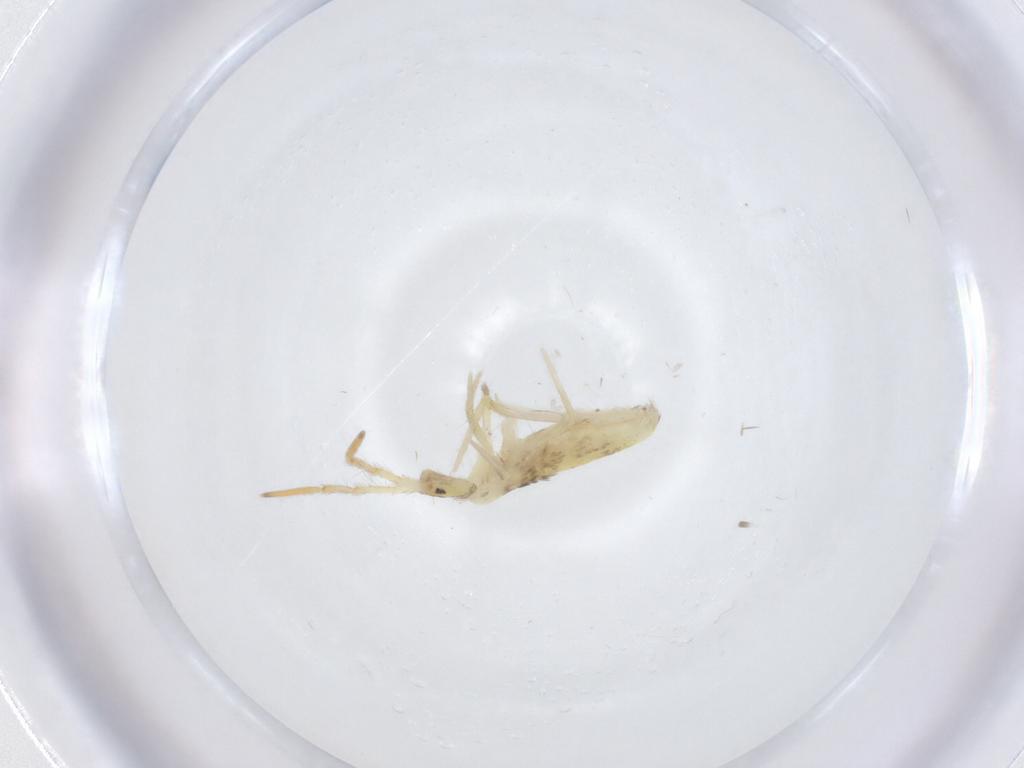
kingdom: Animalia
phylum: Arthropoda
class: Collembola
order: Entomobryomorpha
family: Entomobryidae
